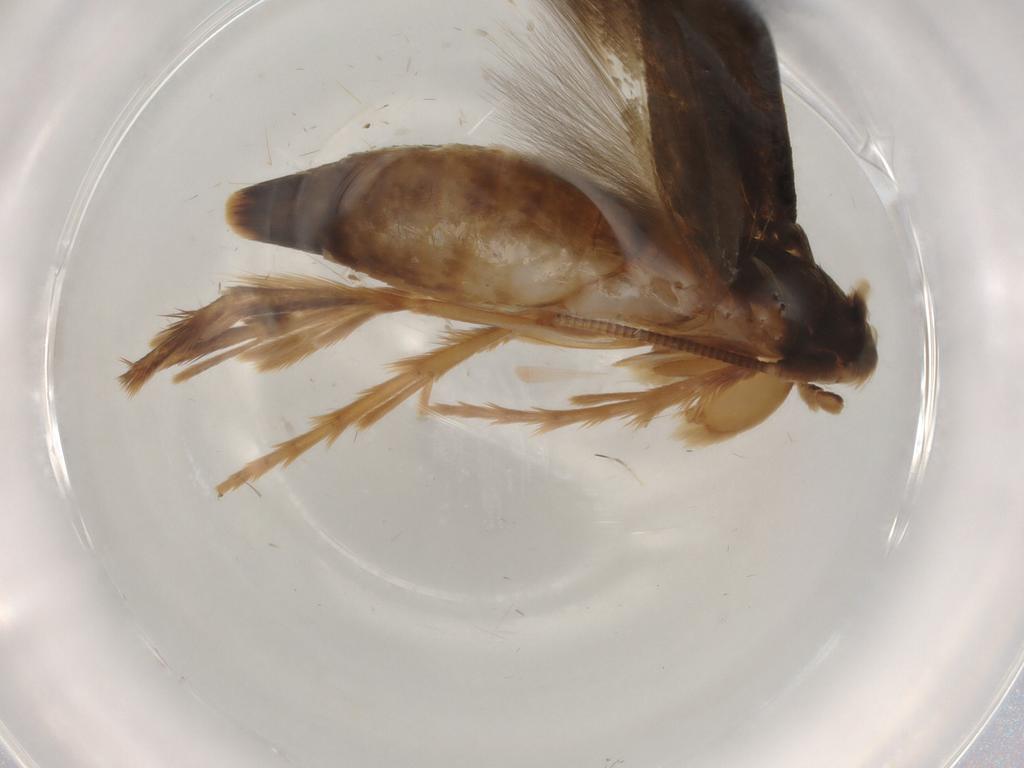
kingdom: Animalia
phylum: Arthropoda
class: Insecta
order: Lepidoptera
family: Tineidae
